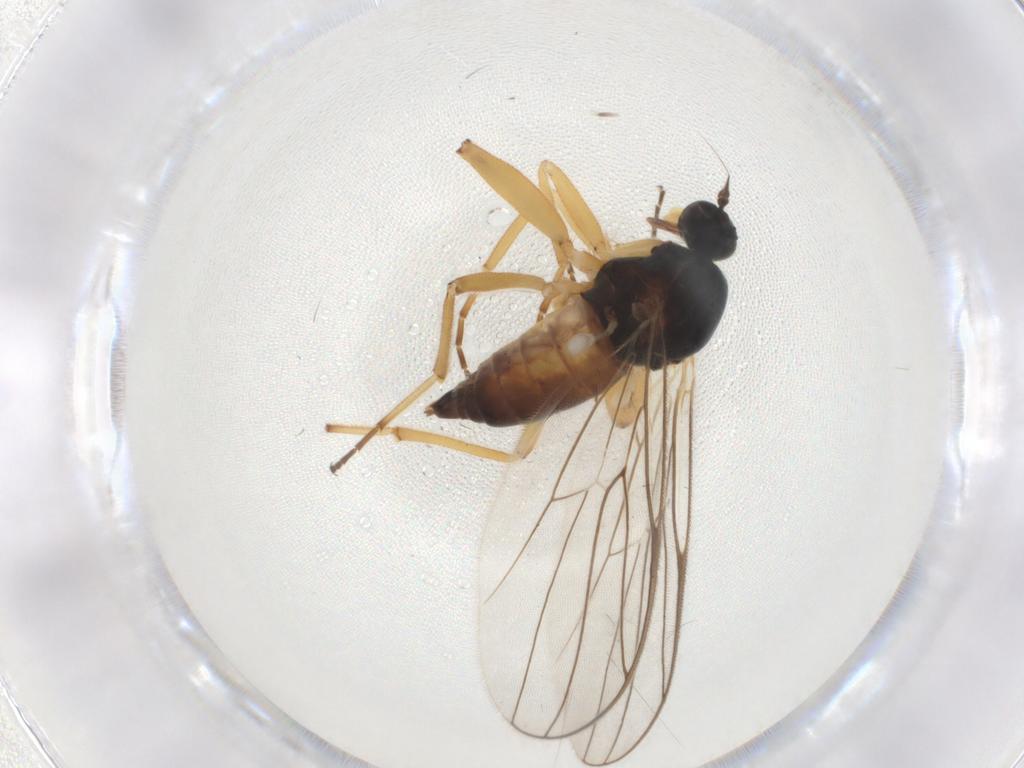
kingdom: Animalia
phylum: Arthropoda
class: Insecta
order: Diptera
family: Hybotidae
